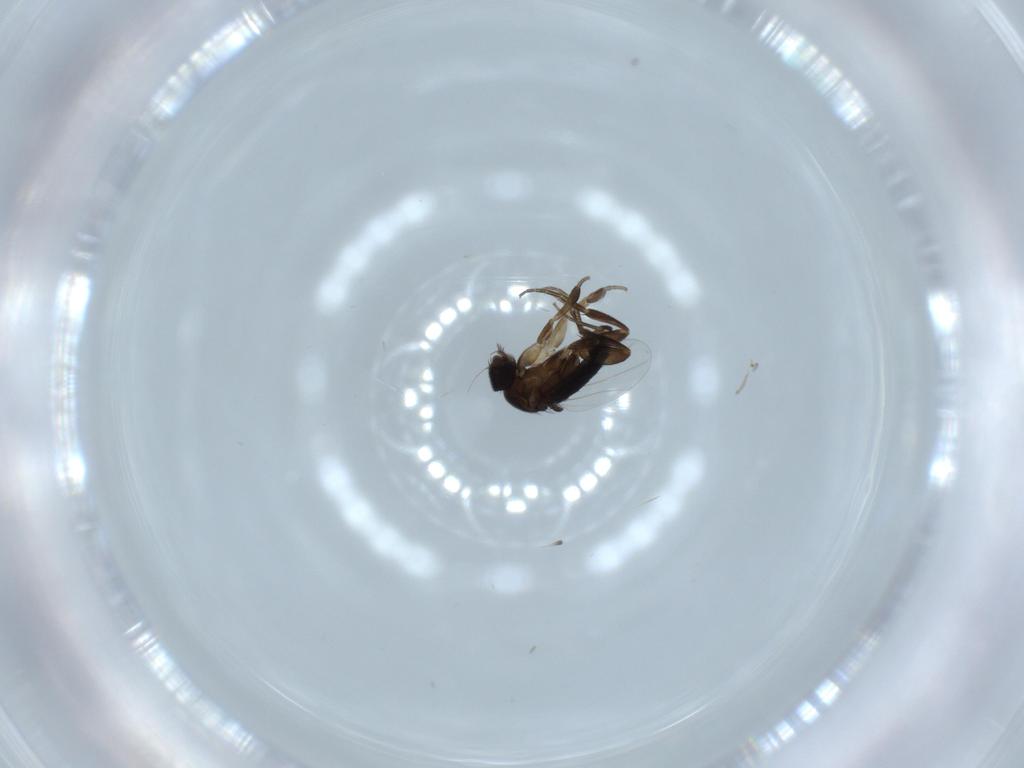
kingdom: Animalia
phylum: Arthropoda
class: Insecta
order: Diptera
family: Phoridae
